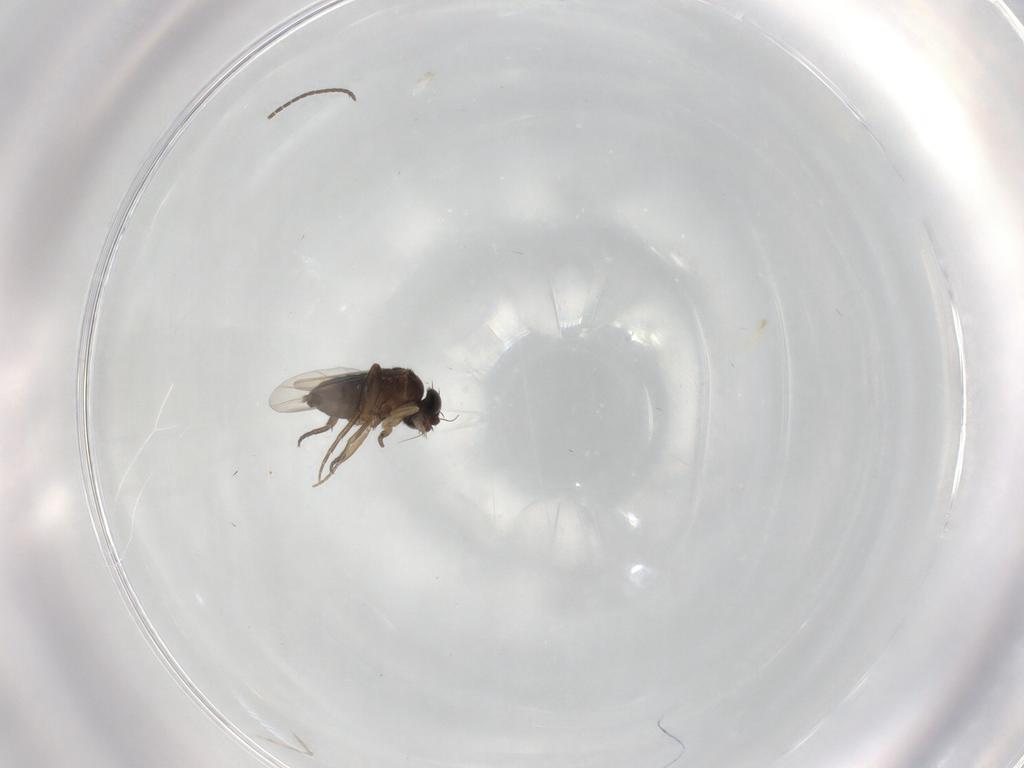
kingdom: Animalia
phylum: Arthropoda
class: Insecta
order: Diptera
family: Phoridae
